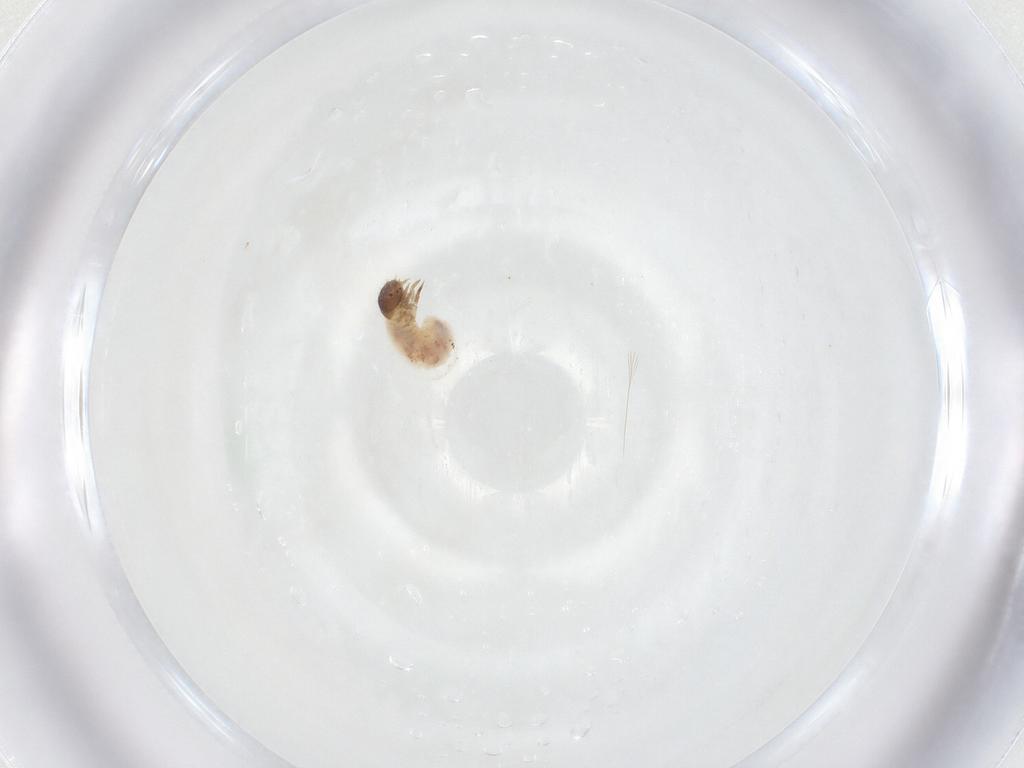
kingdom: Animalia
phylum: Arthropoda
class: Insecta
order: Coleoptera
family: Chrysomelidae
